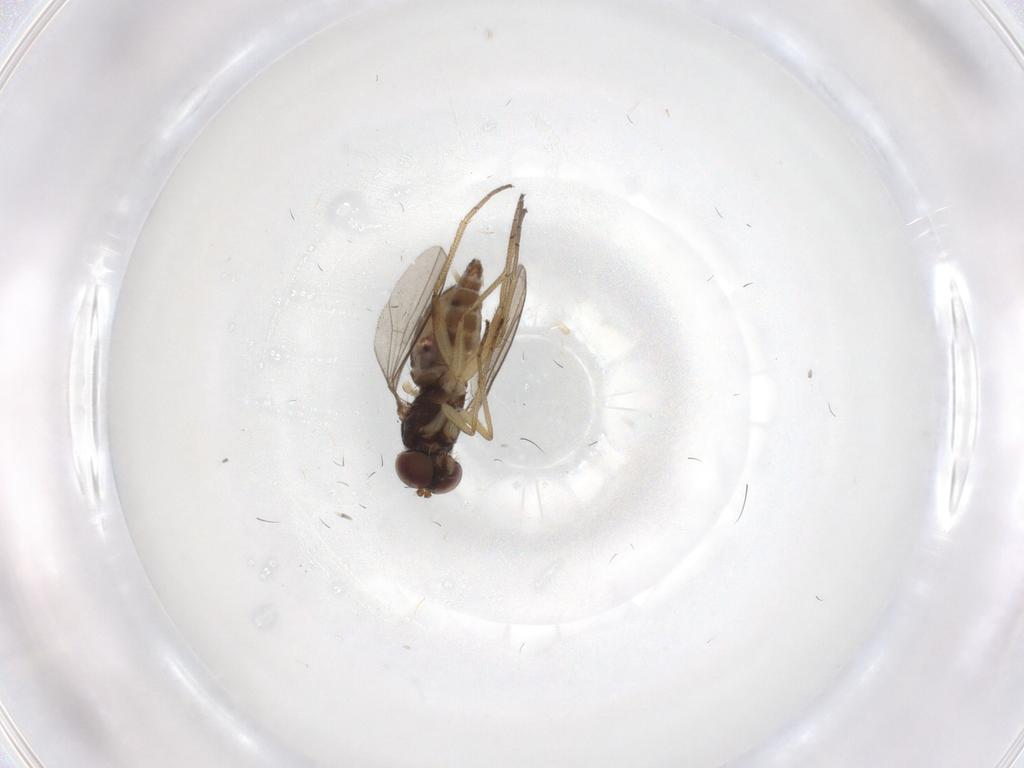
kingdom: Animalia
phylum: Arthropoda
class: Insecta
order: Diptera
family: Dolichopodidae
